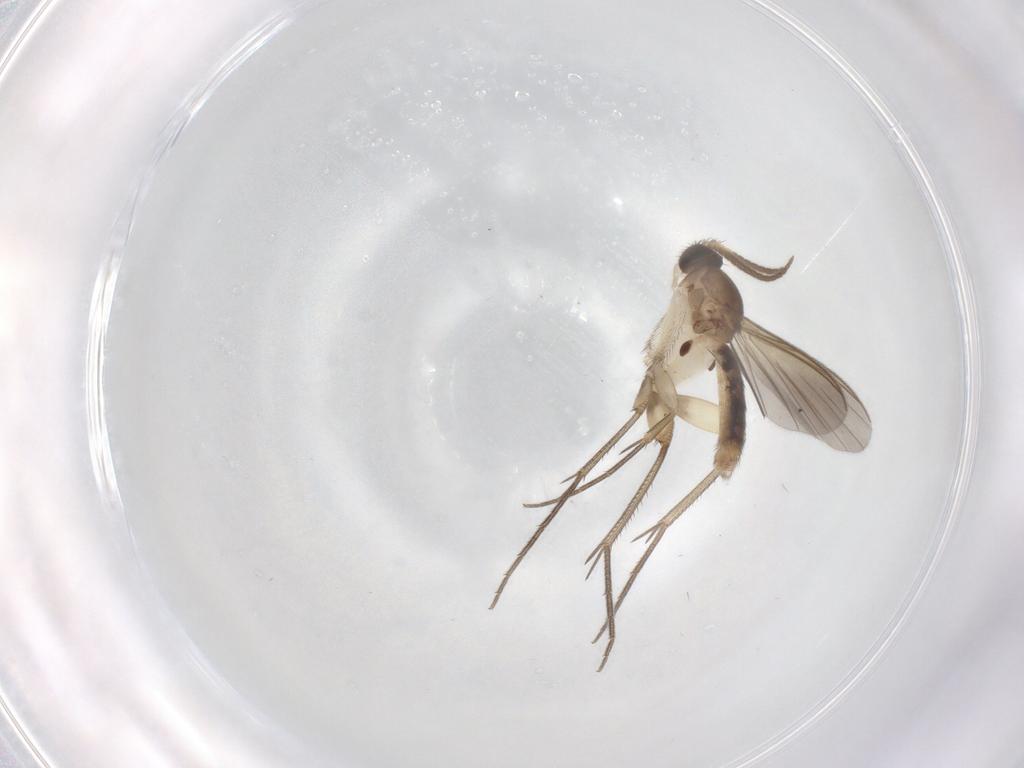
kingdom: Animalia
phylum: Arthropoda
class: Insecta
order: Diptera
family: Mycetophilidae
